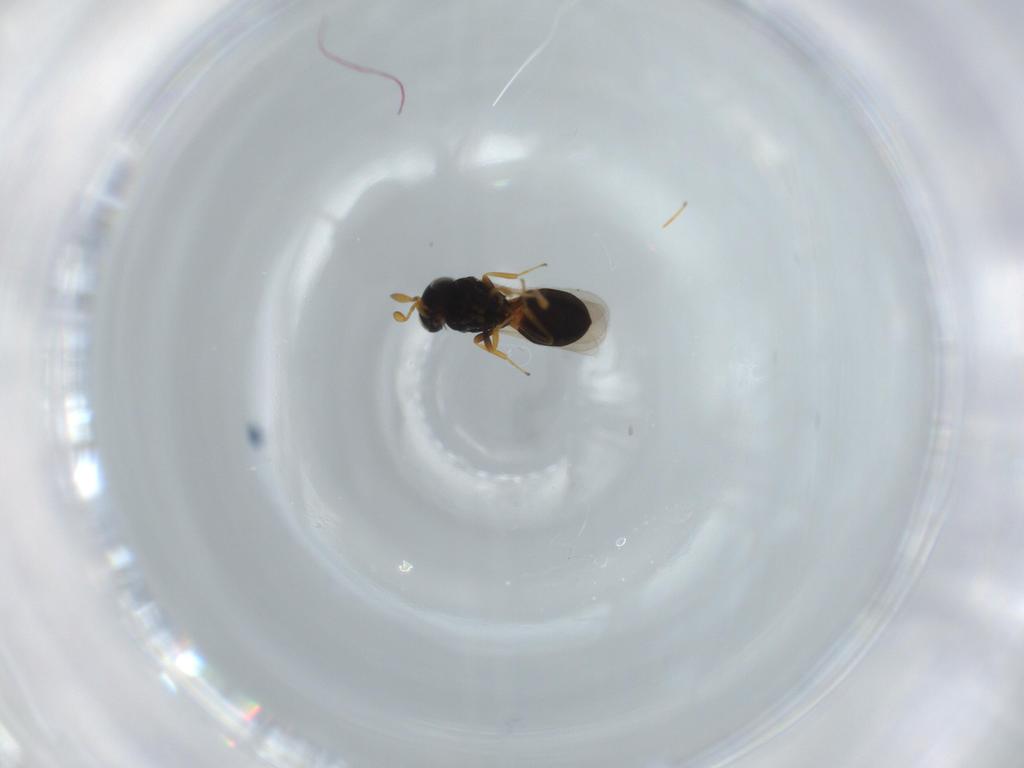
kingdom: Animalia
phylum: Arthropoda
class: Insecta
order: Hymenoptera
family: Scelionidae
